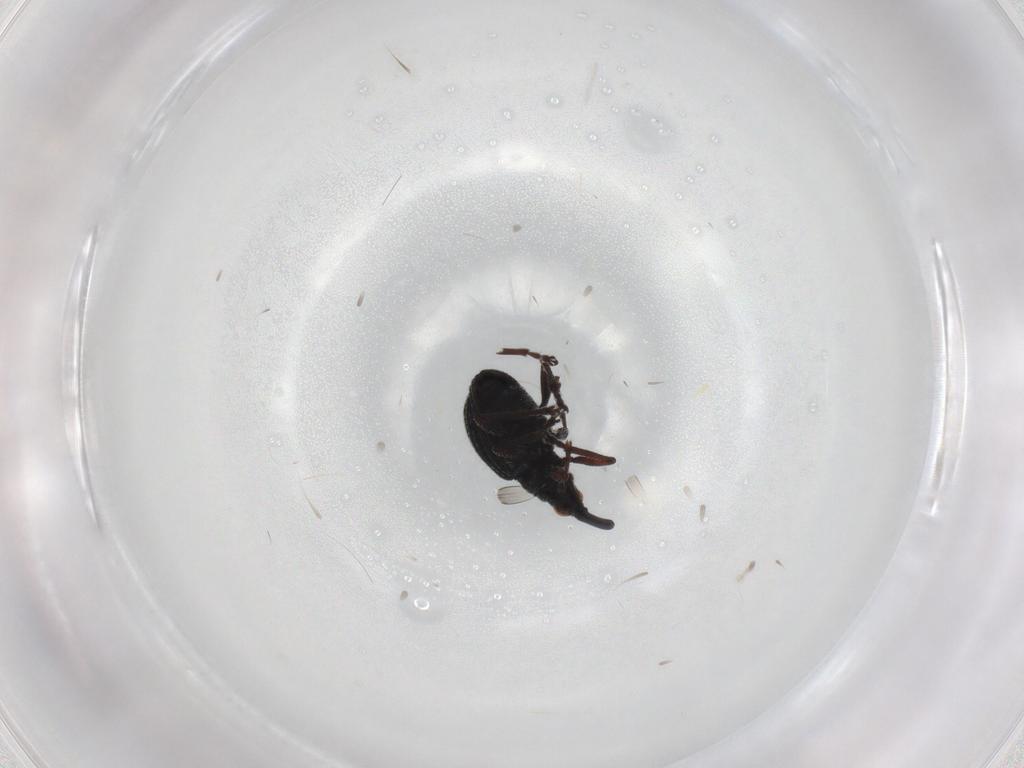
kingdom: Animalia
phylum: Arthropoda
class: Insecta
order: Coleoptera
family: Brentidae
